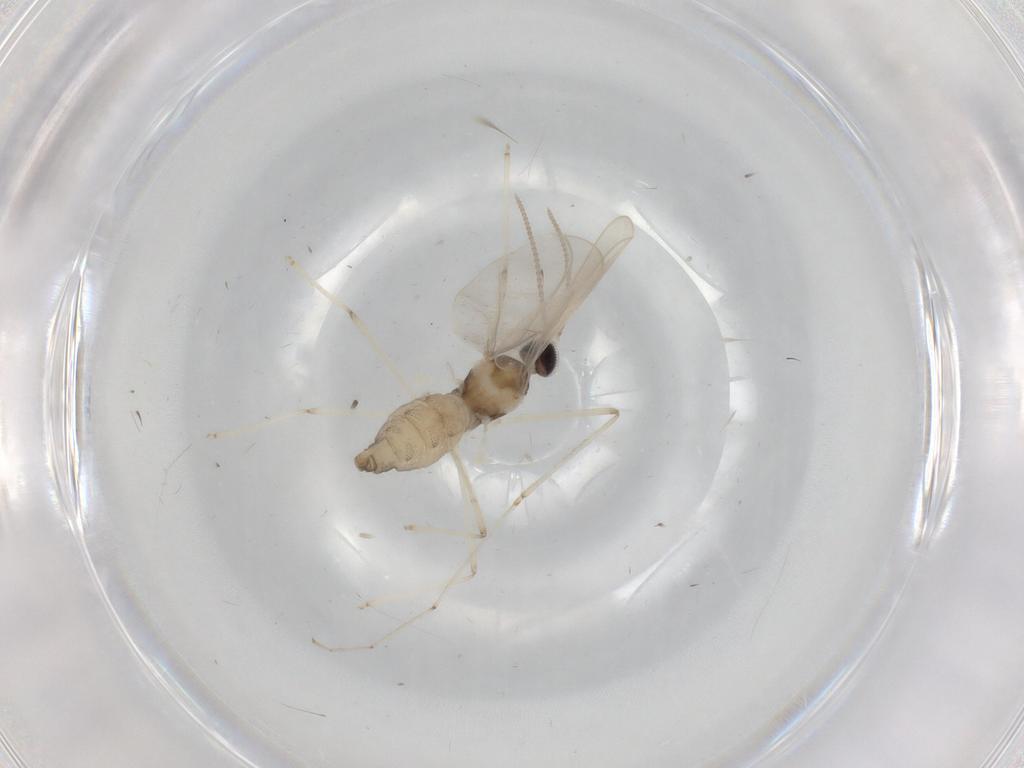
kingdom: Animalia
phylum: Arthropoda
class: Insecta
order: Diptera
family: Cecidomyiidae
